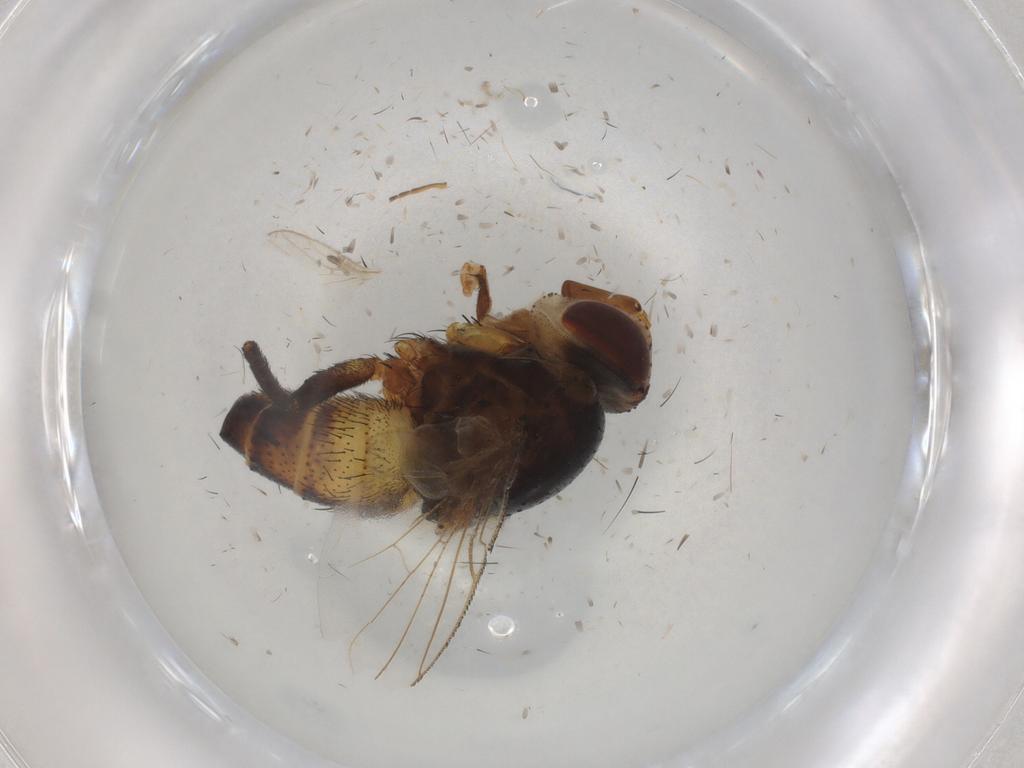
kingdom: Animalia
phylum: Arthropoda
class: Insecta
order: Diptera
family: Glossinidae
